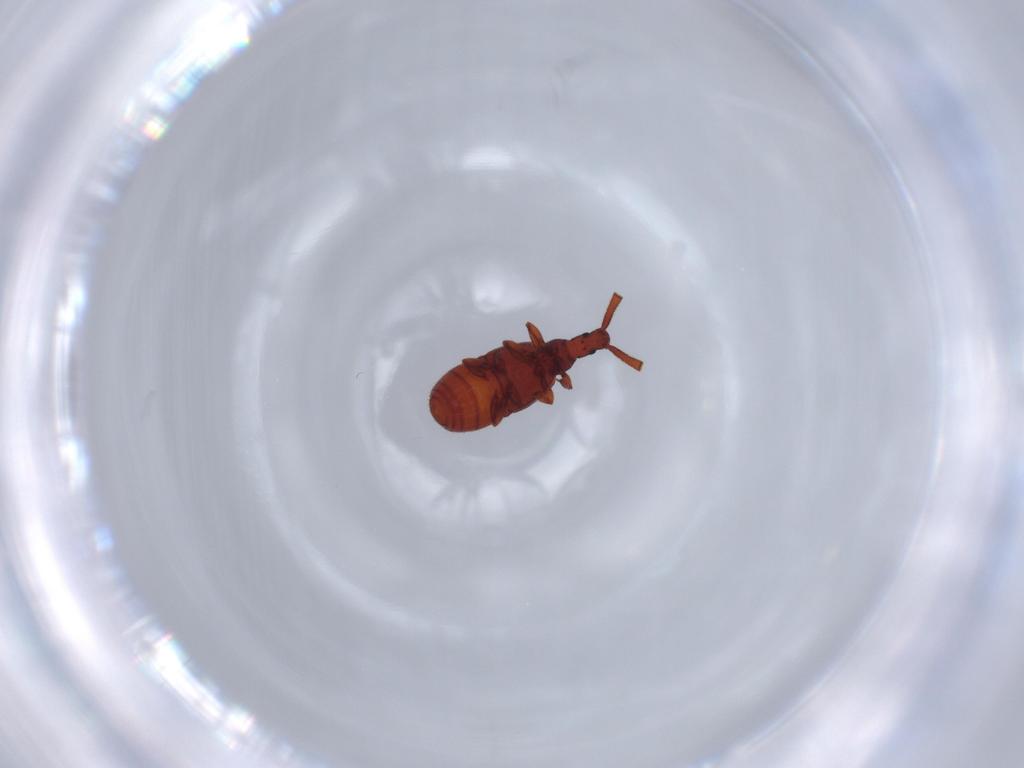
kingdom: Animalia
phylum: Arthropoda
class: Insecta
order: Coleoptera
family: Staphylinidae
